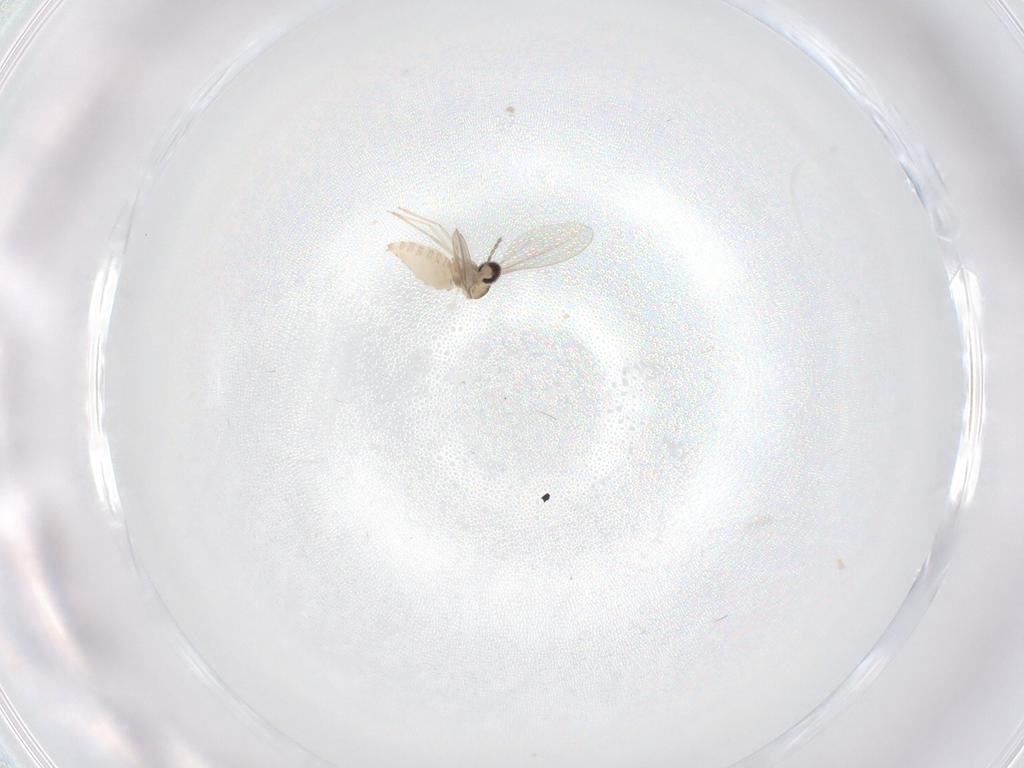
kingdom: Animalia
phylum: Arthropoda
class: Insecta
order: Diptera
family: Cecidomyiidae
